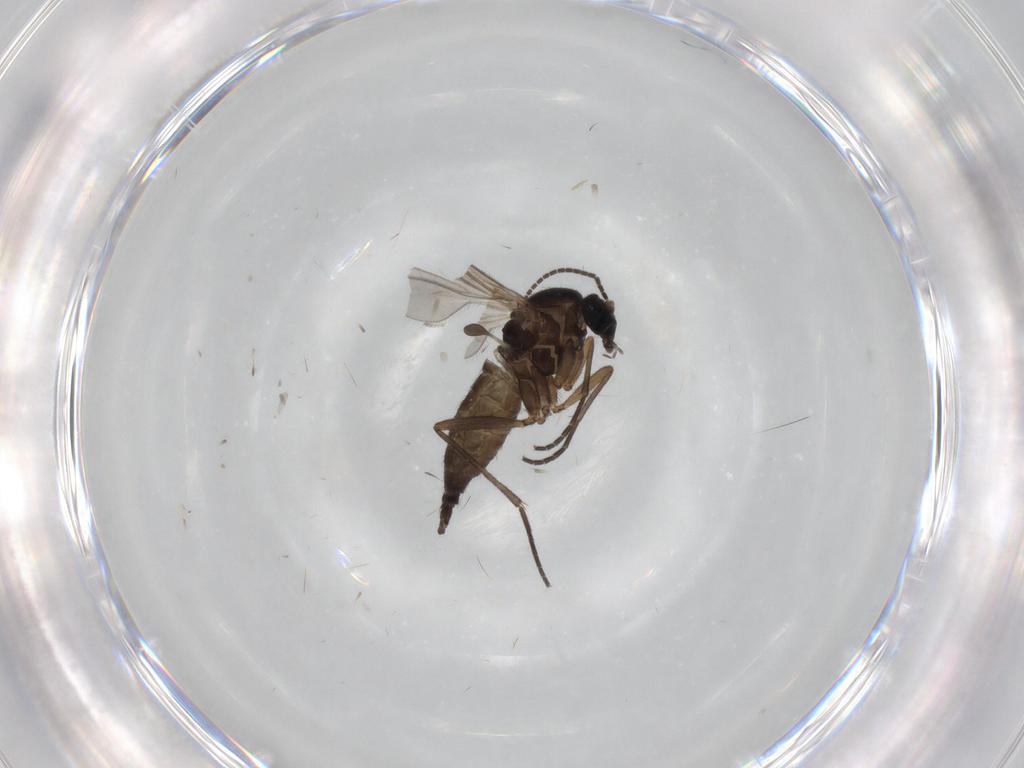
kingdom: Animalia
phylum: Arthropoda
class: Insecta
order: Diptera
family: Sciaridae
